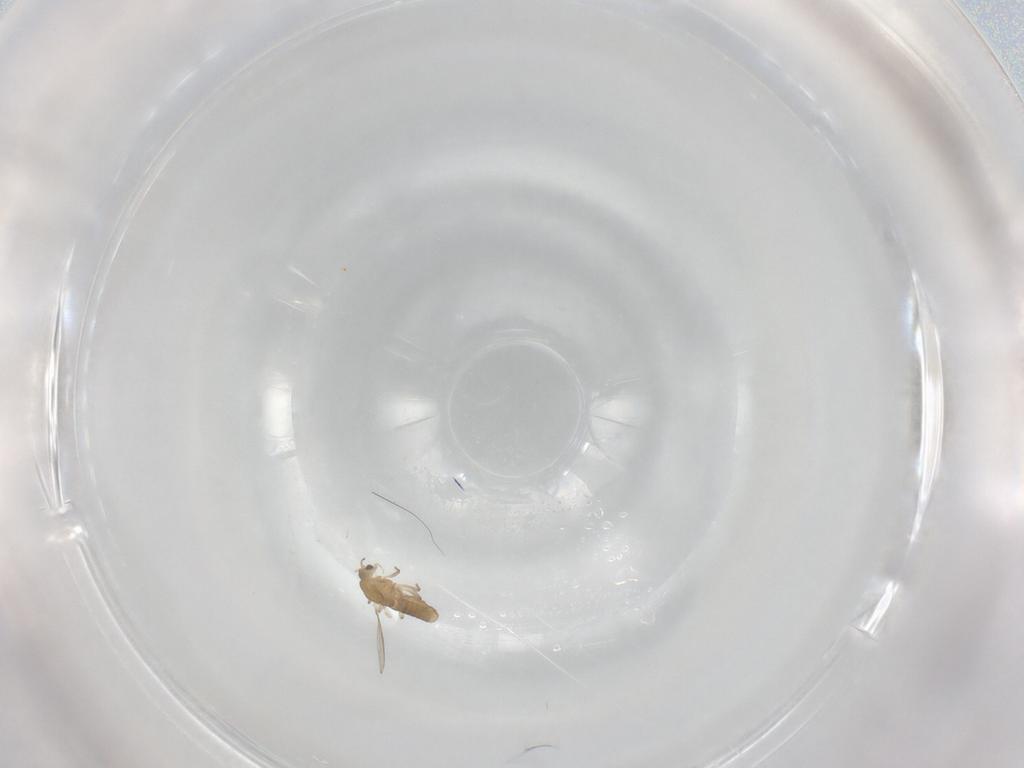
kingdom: Animalia
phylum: Arthropoda
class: Insecta
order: Diptera
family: Chironomidae
